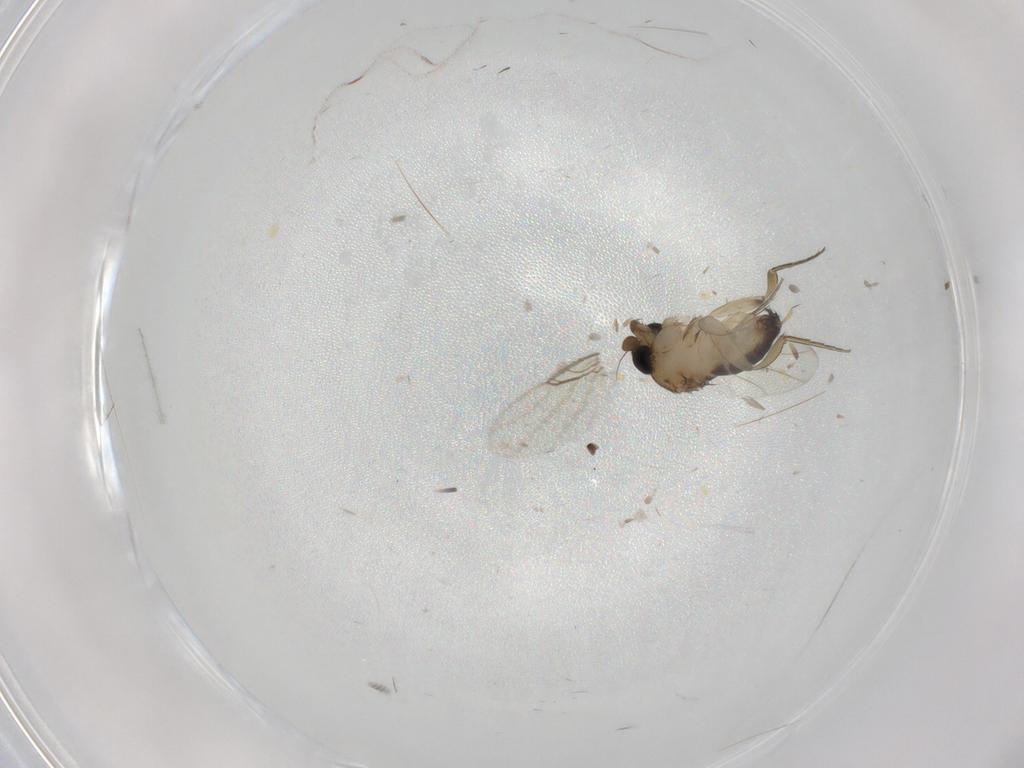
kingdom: Animalia
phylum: Arthropoda
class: Insecta
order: Diptera
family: Phoridae
